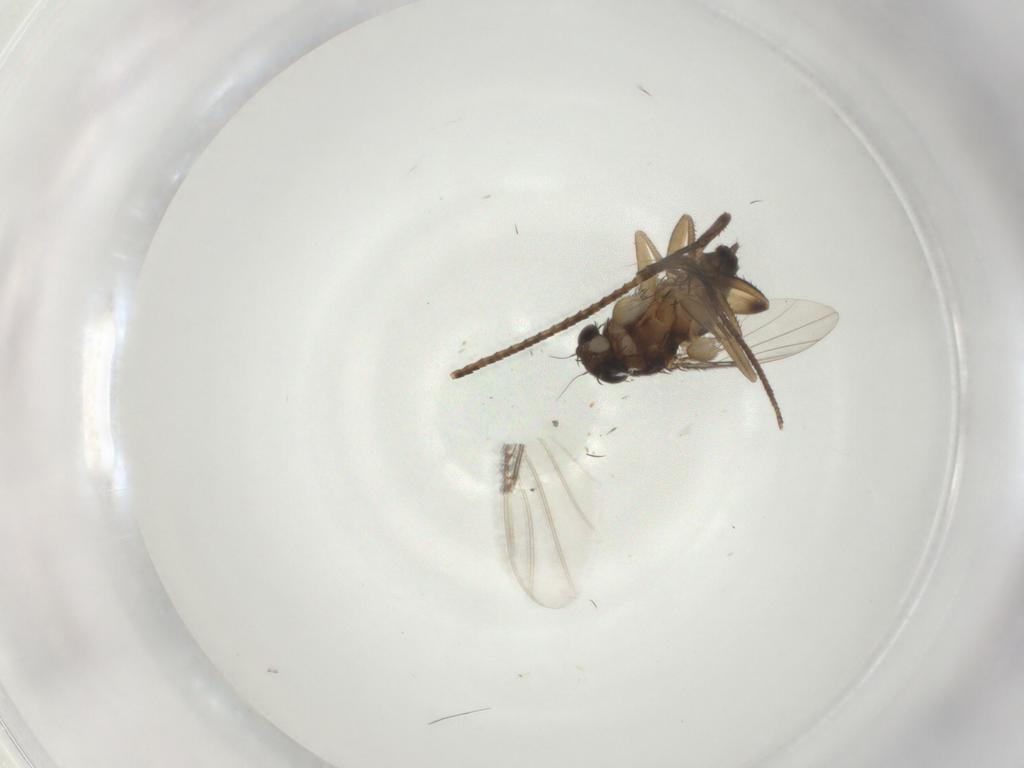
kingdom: Animalia
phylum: Arthropoda
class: Insecta
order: Diptera
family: Phoridae
